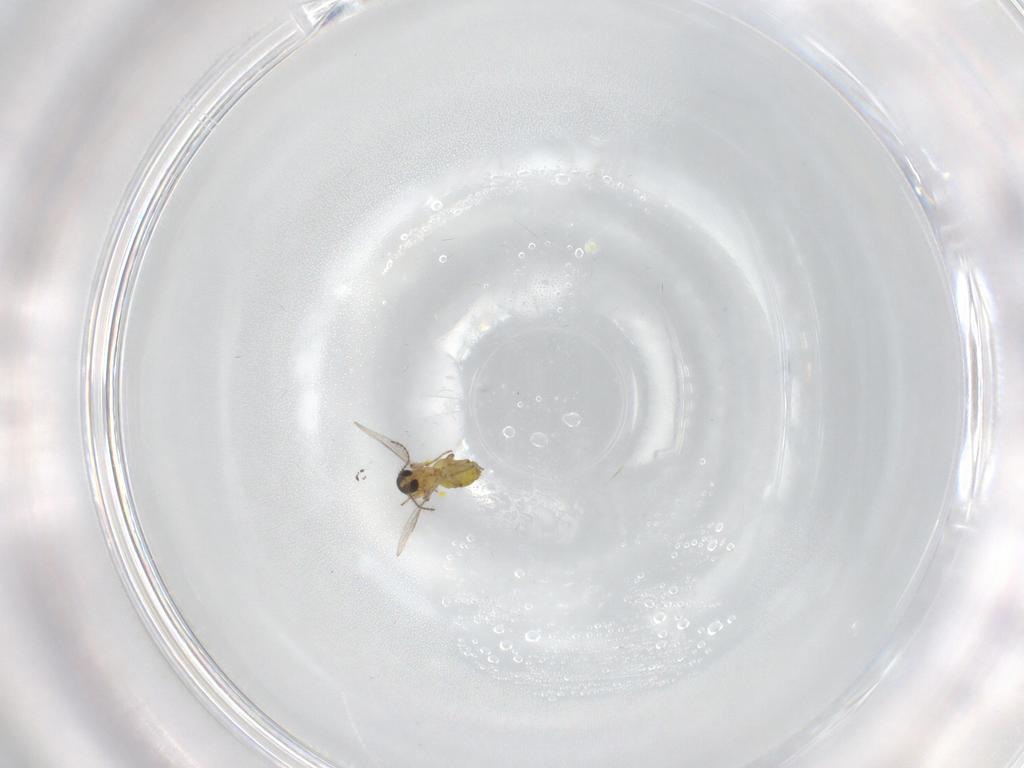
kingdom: Animalia
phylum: Arthropoda
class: Insecta
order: Diptera
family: Ceratopogonidae
